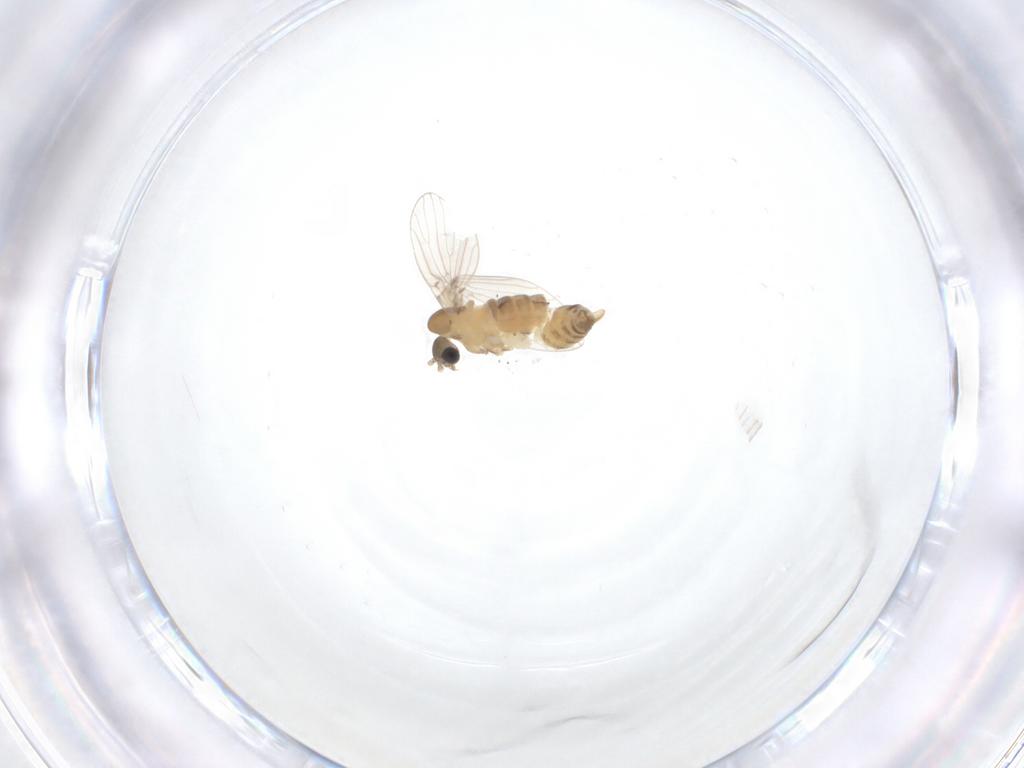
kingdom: Animalia
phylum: Arthropoda
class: Insecta
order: Diptera
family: Psychodidae
